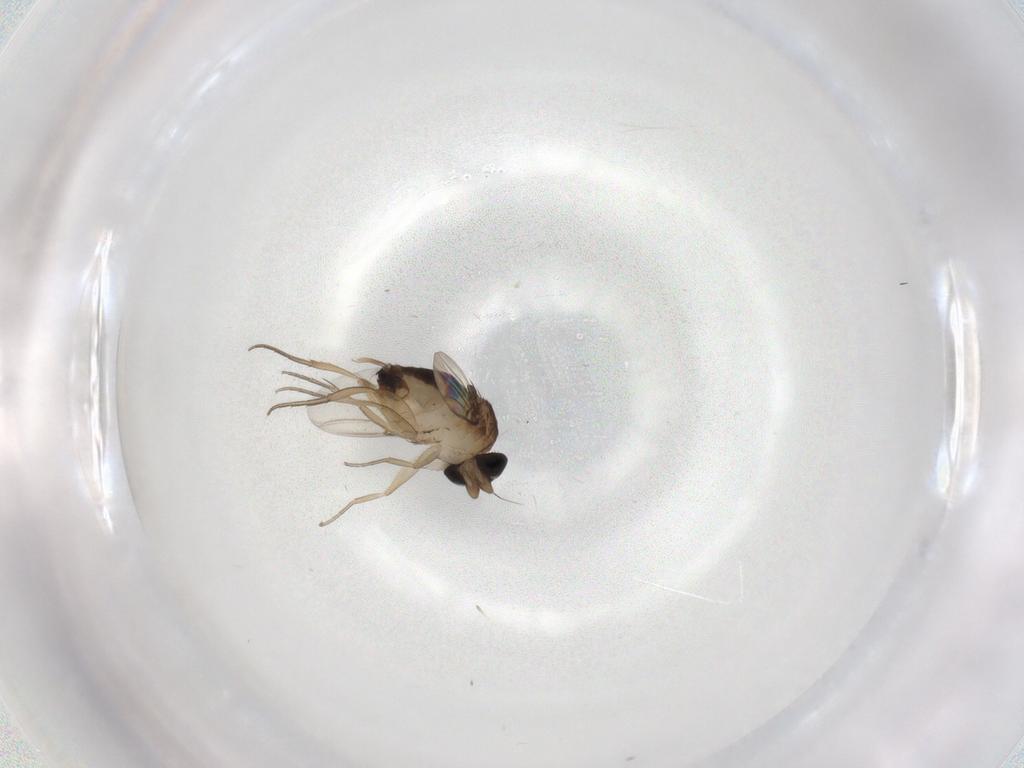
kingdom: Animalia
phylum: Arthropoda
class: Insecta
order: Diptera
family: Phoridae
